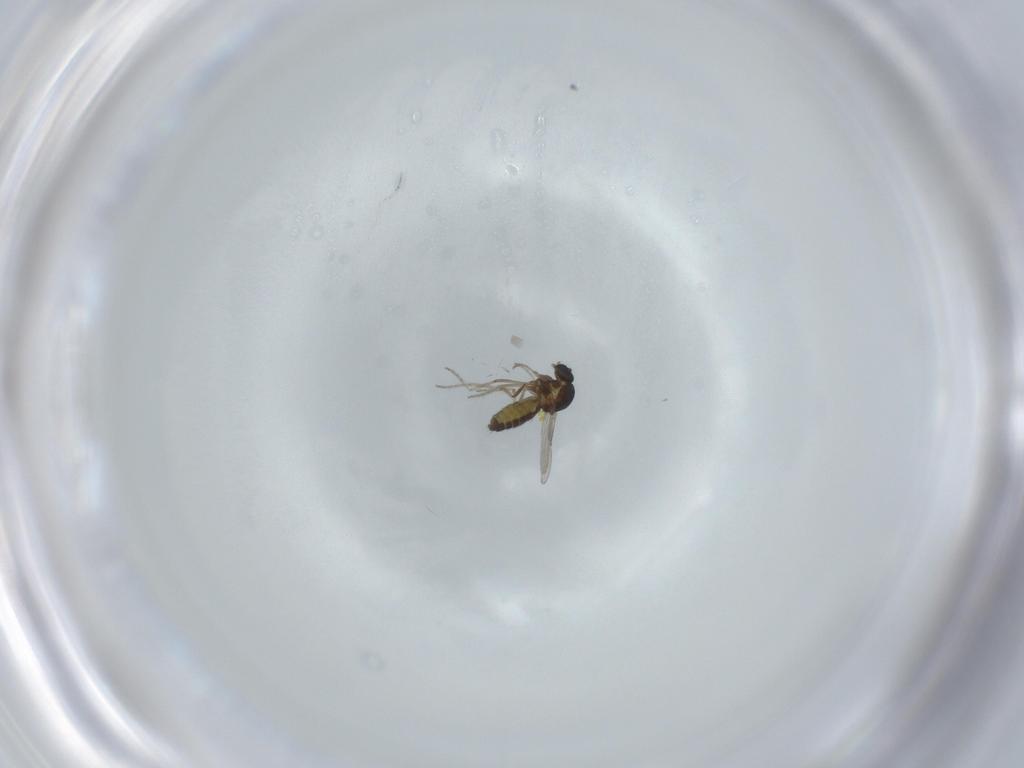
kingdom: Animalia
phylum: Arthropoda
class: Insecta
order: Diptera
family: Ceratopogonidae
